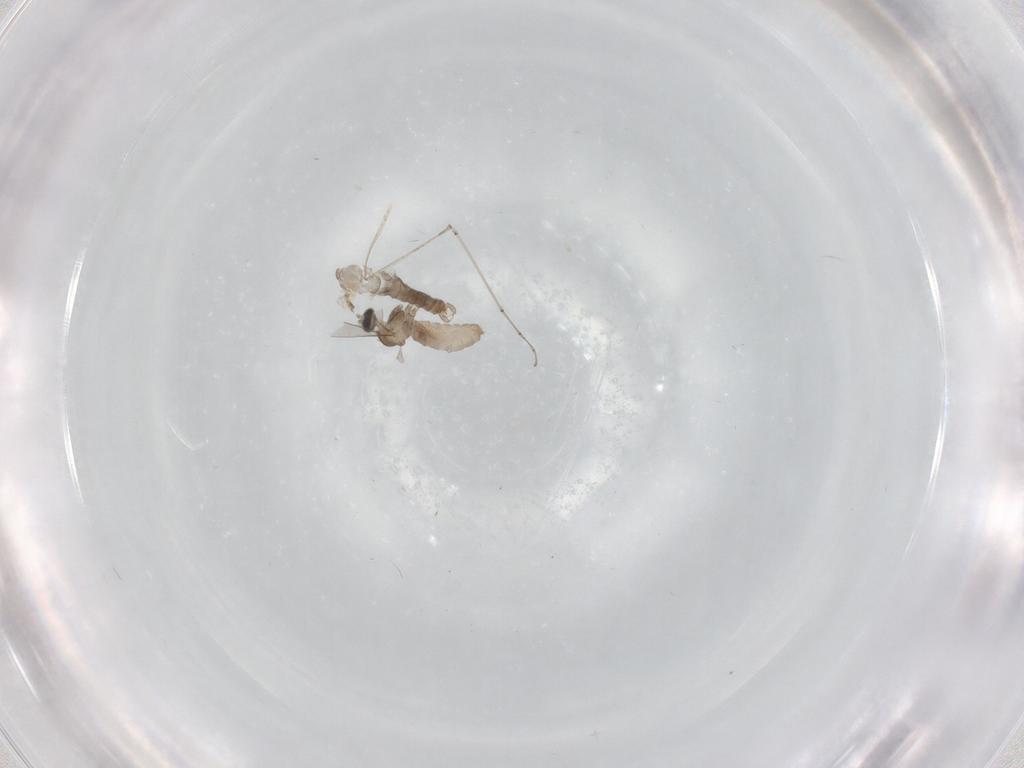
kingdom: Animalia
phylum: Arthropoda
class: Insecta
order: Diptera
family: Cecidomyiidae
